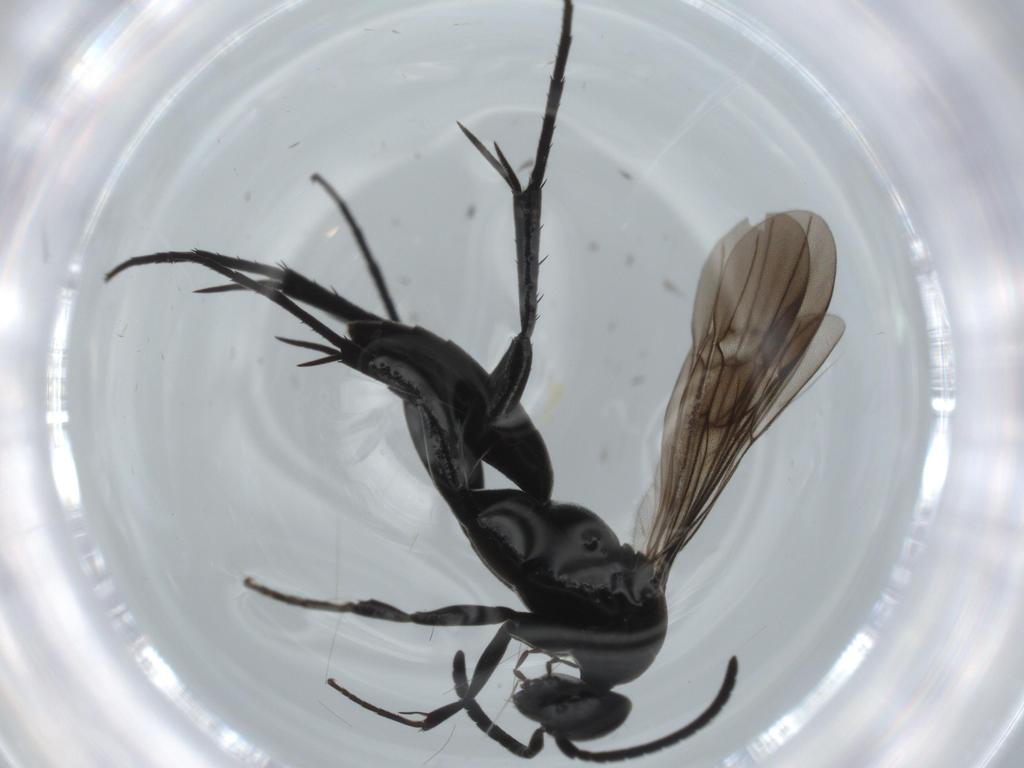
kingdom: Animalia
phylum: Arthropoda
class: Insecta
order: Hymenoptera
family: Pompilidae
